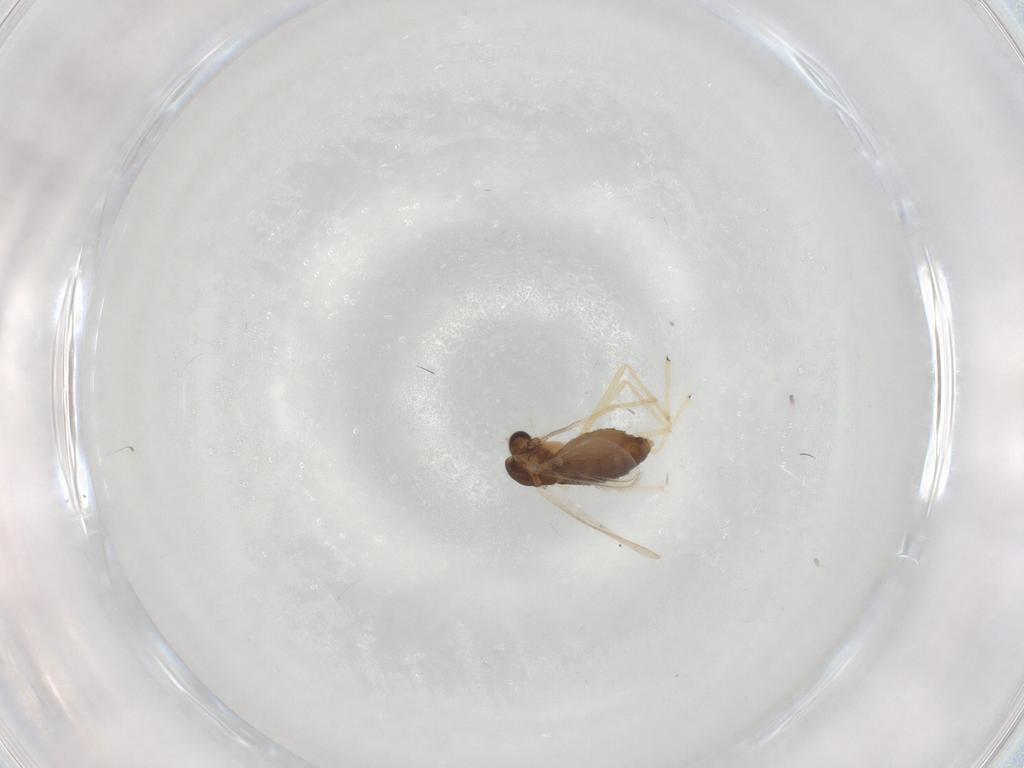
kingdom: Animalia
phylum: Arthropoda
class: Insecta
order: Diptera
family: Chironomidae
